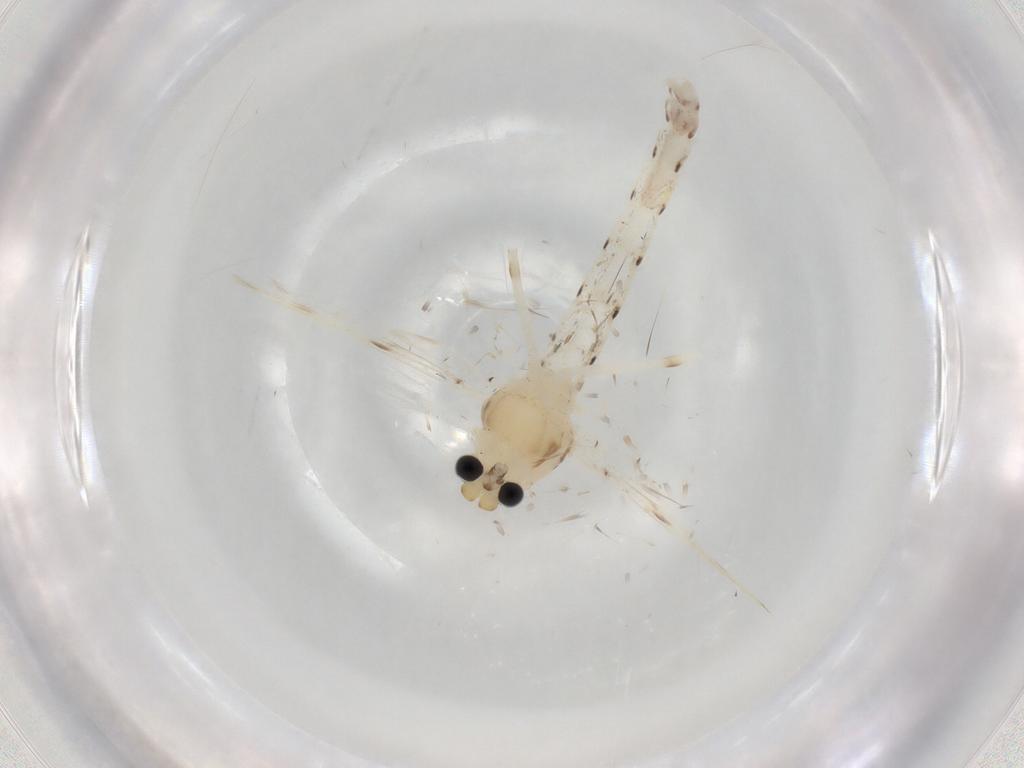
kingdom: Animalia
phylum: Arthropoda
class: Insecta
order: Diptera
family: Chironomidae
